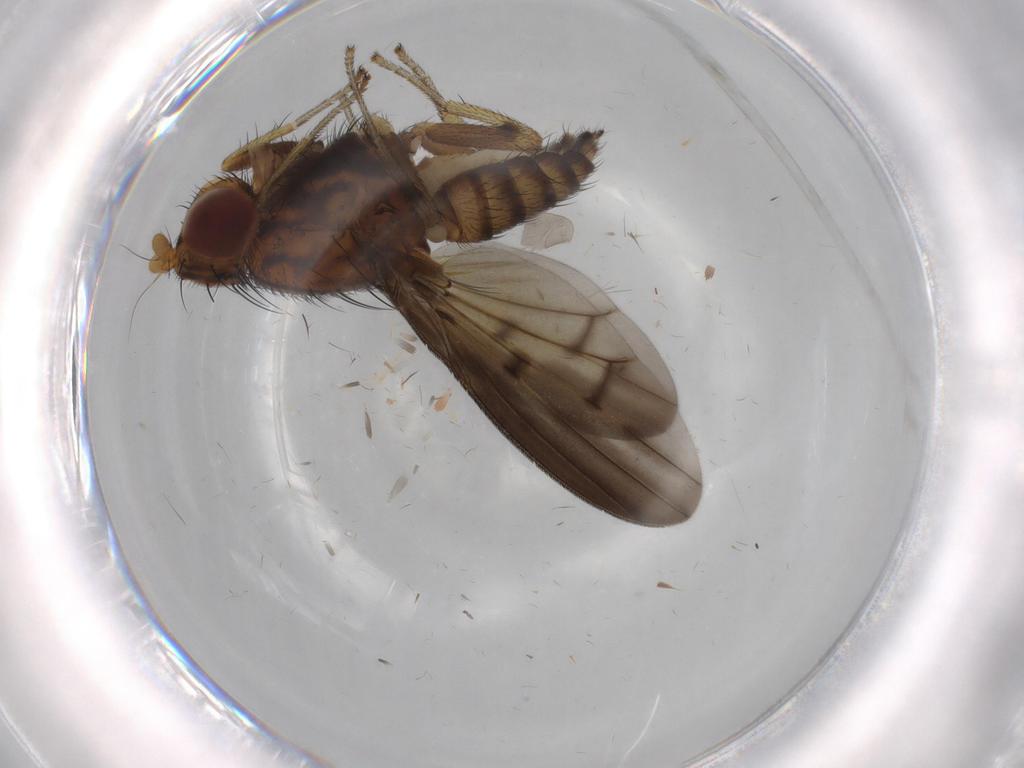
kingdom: Animalia
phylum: Arthropoda
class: Insecta
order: Diptera
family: Lauxaniidae
